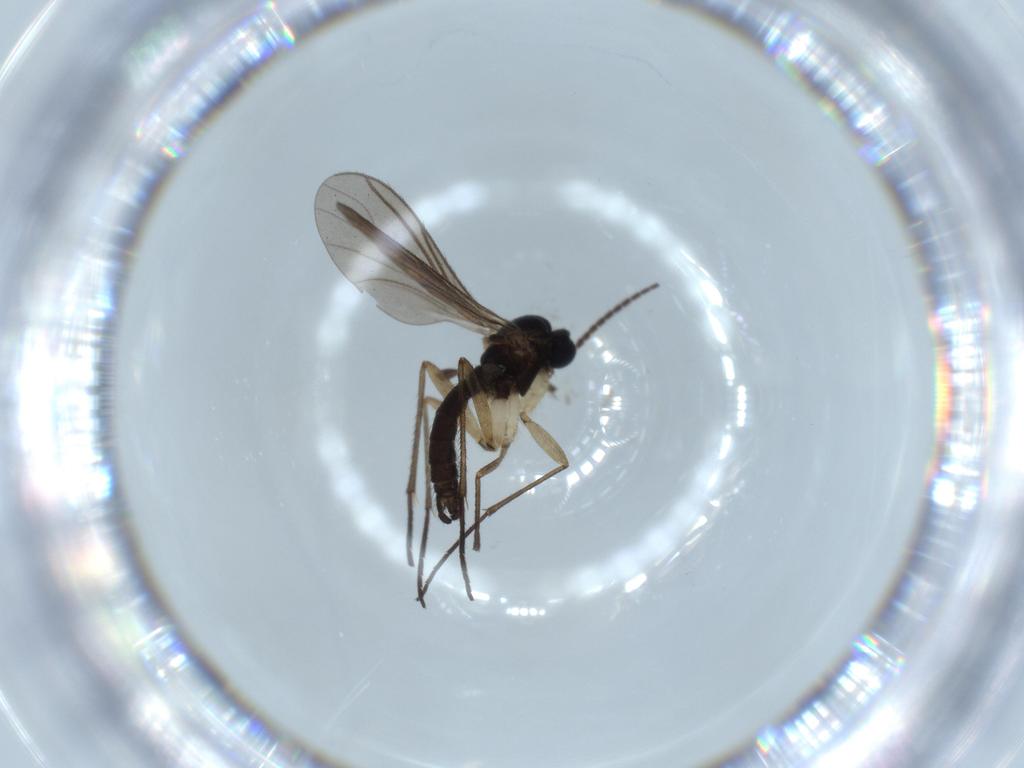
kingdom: Animalia
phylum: Arthropoda
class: Insecta
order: Diptera
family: Sciaridae
